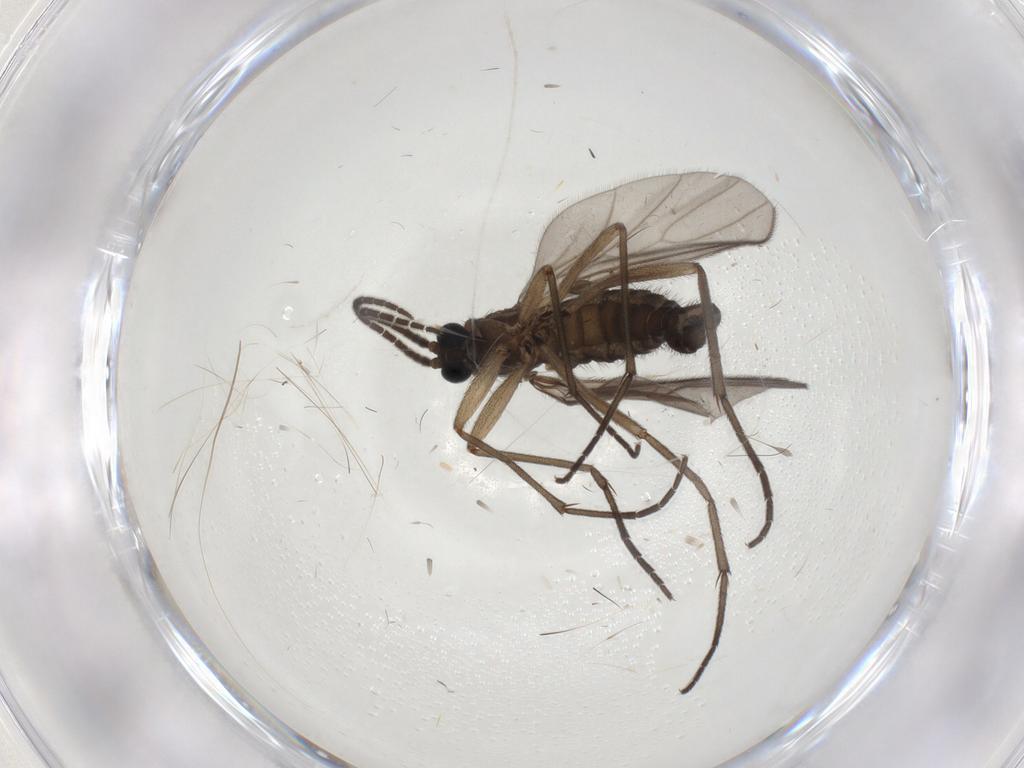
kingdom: Animalia
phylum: Arthropoda
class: Insecta
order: Diptera
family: Sciaridae
